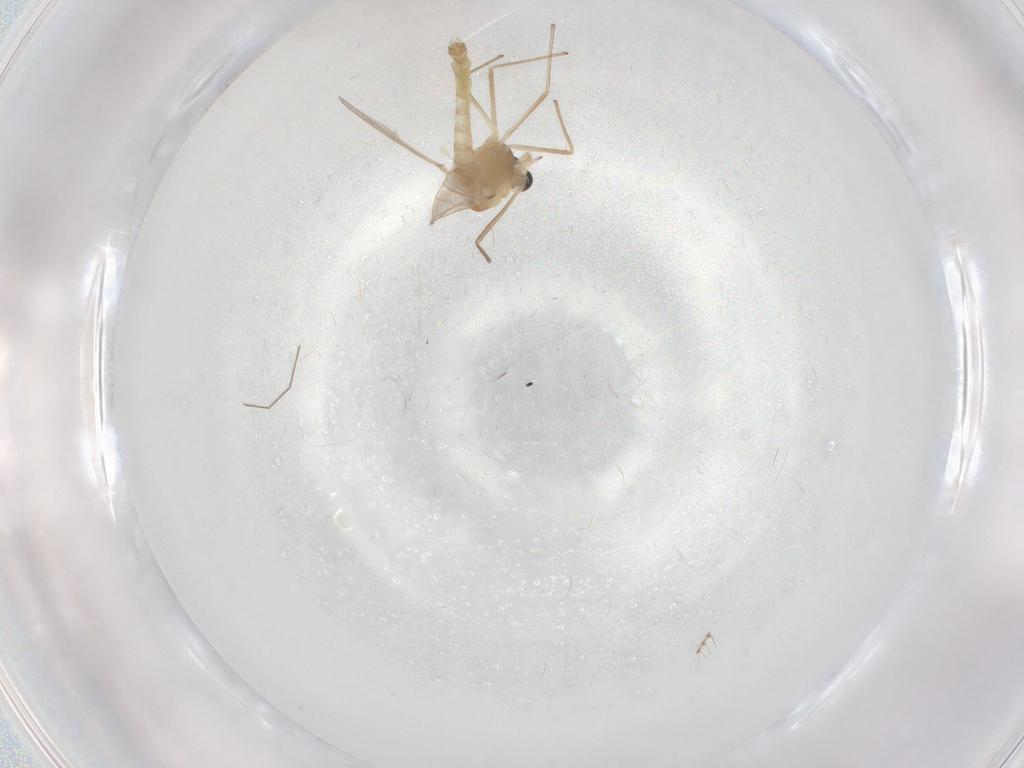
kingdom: Animalia
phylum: Arthropoda
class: Insecta
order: Diptera
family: Chironomidae
